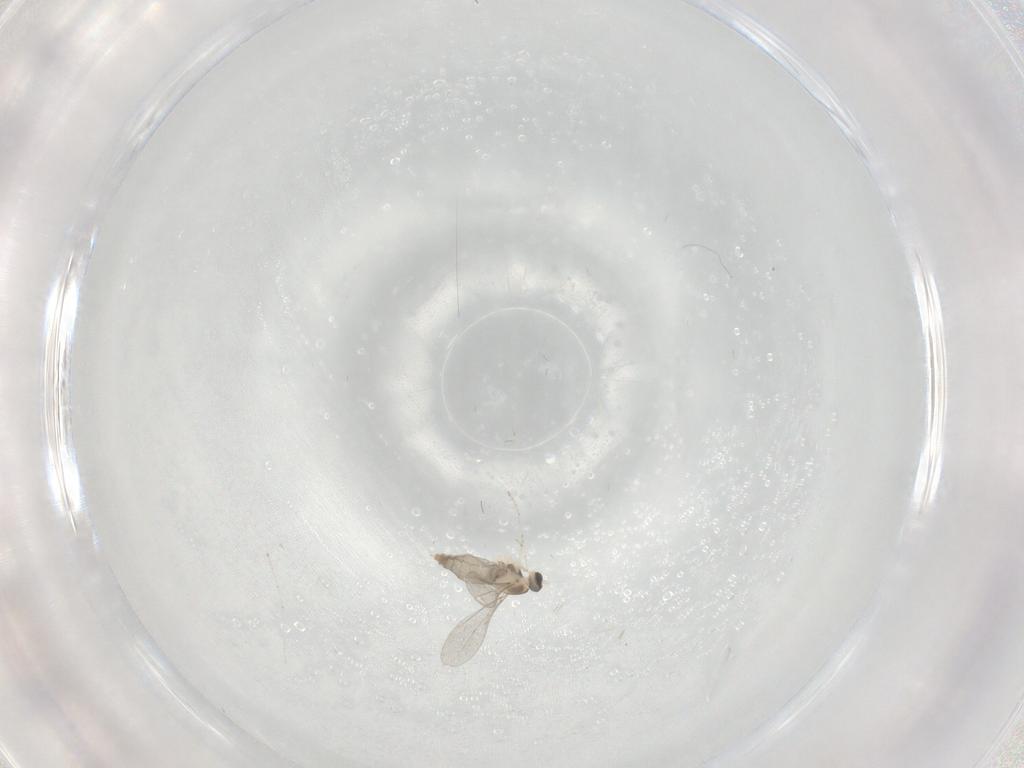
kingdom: Animalia
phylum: Arthropoda
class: Insecta
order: Diptera
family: Cecidomyiidae
